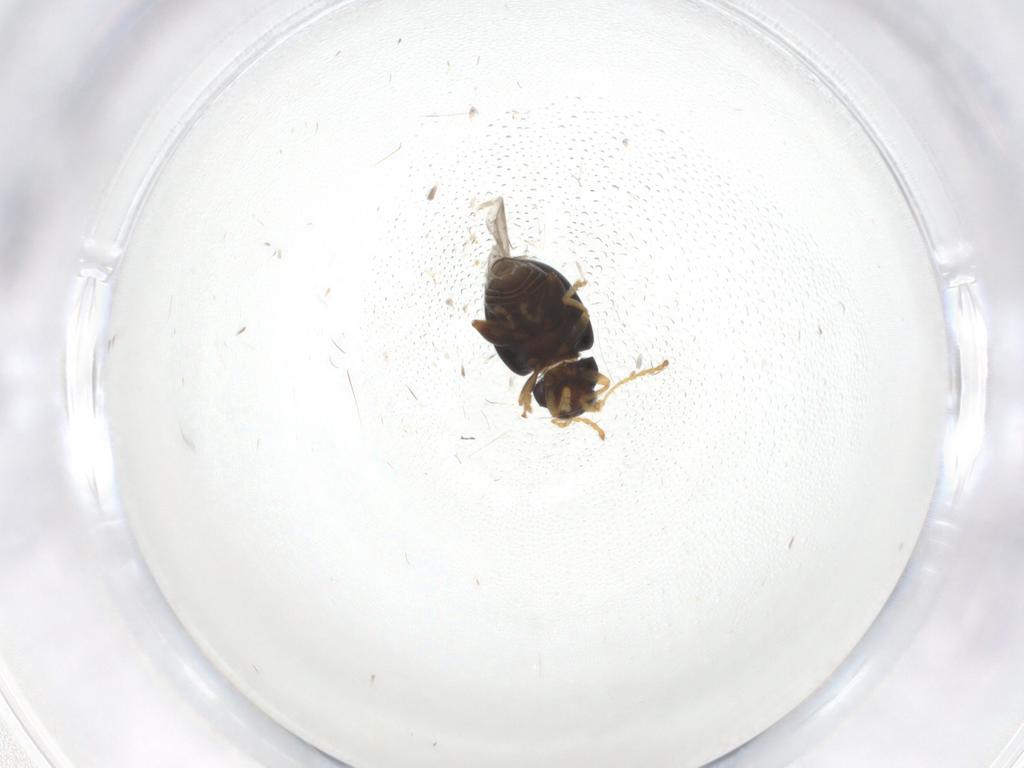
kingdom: Animalia
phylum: Arthropoda
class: Insecta
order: Coleoptera
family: Chrysomelidae
